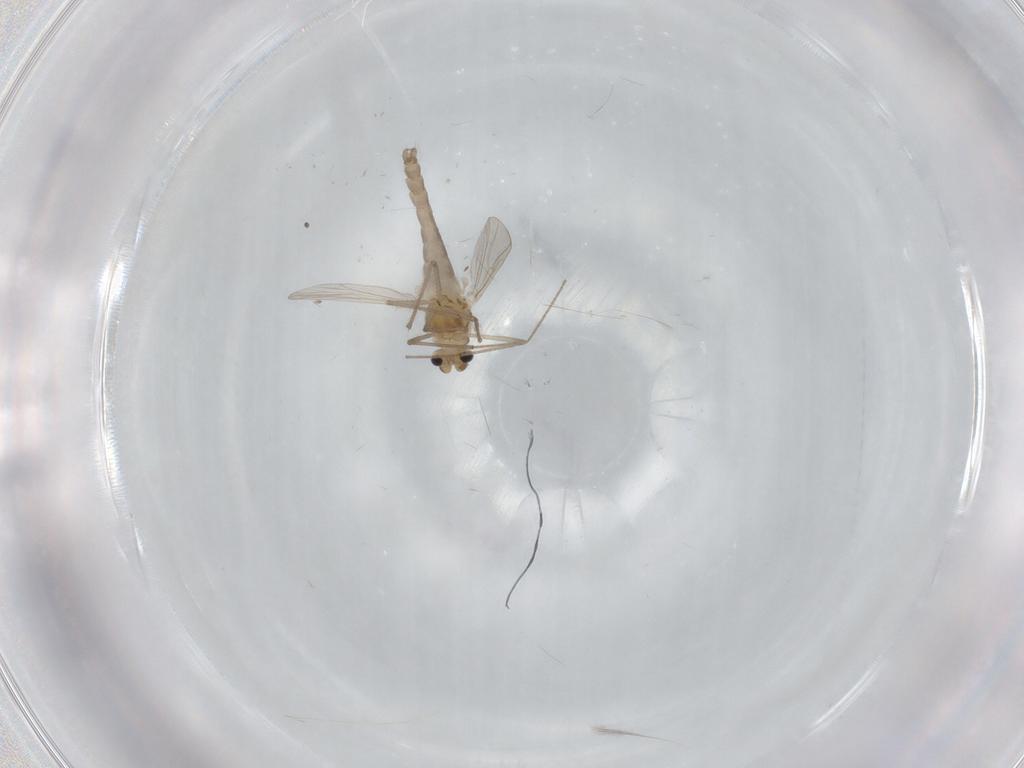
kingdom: Animalia
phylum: Arthropoda
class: Insecta
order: Diptera
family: Chironomidae
